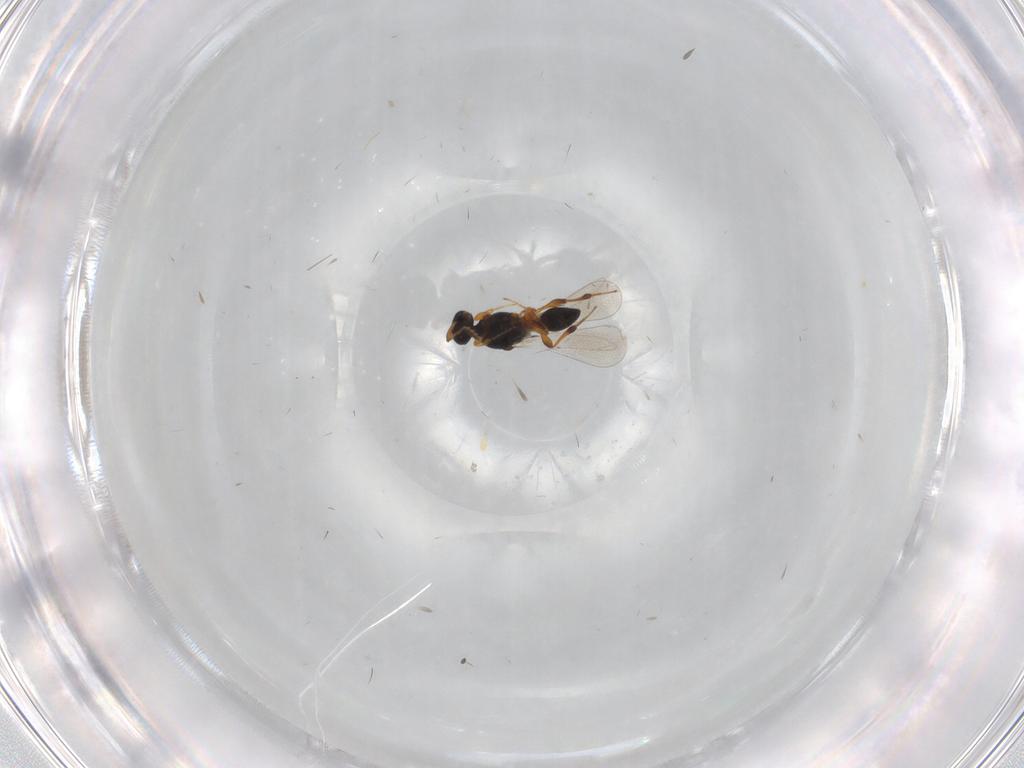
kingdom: Animalia
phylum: Arthropoda
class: Insecta
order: Hymenoptera
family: Platygastridae
